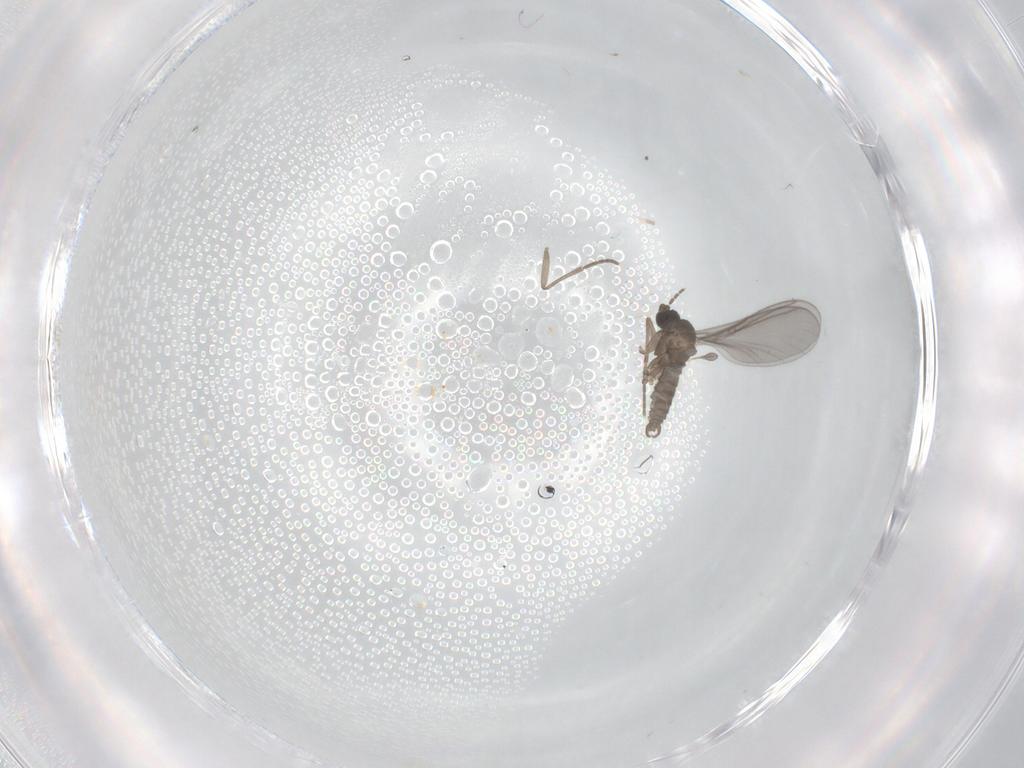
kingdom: Animalia
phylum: Arthropoda
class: Insecta
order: Diptera
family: Sciaridae
